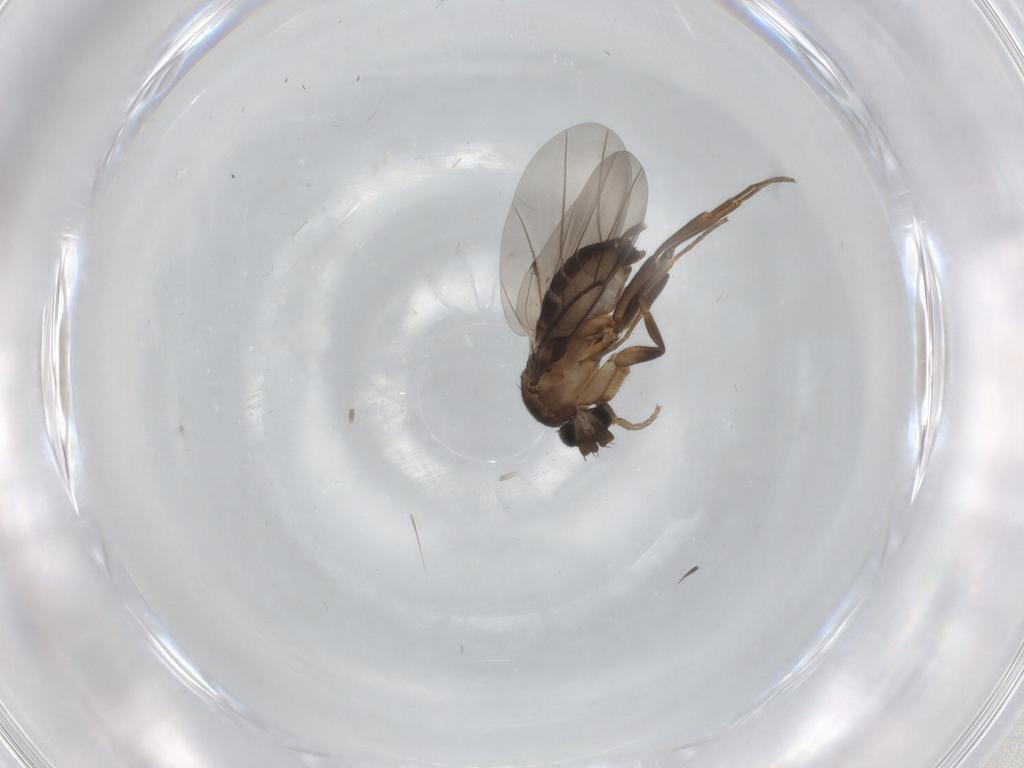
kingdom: Animalia
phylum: Arthropoda
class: Insecta
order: Diptera
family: Phoridae
